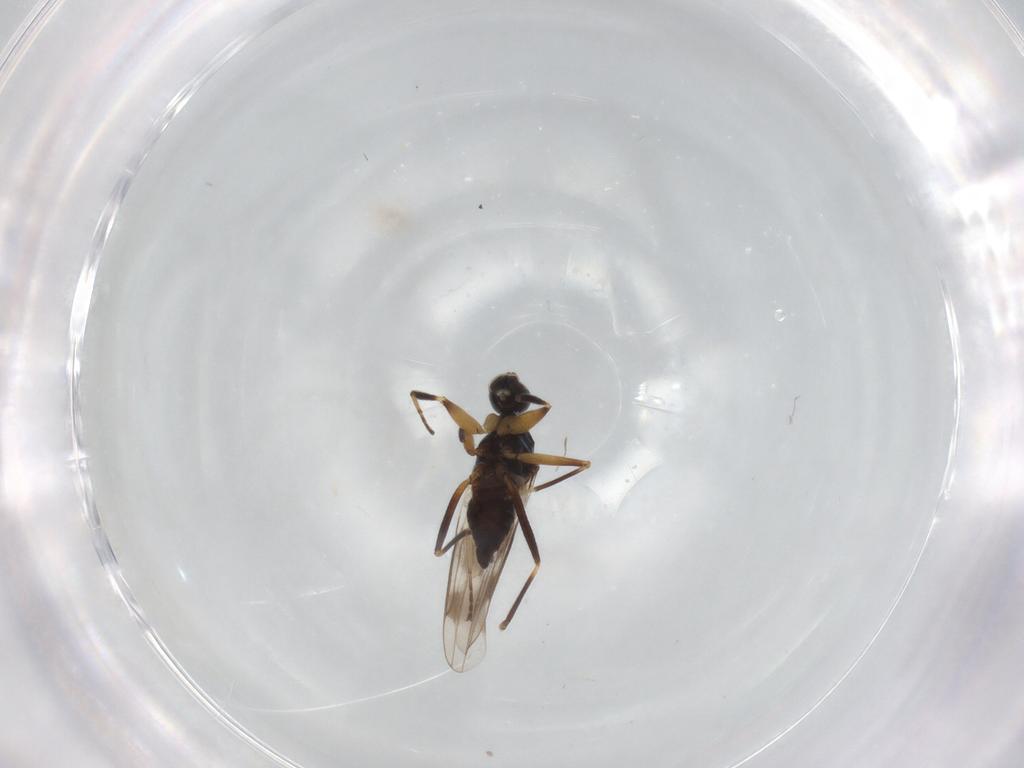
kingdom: Animalia
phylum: Arthropoda
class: Insecta
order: Diptera
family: Hybotidae
